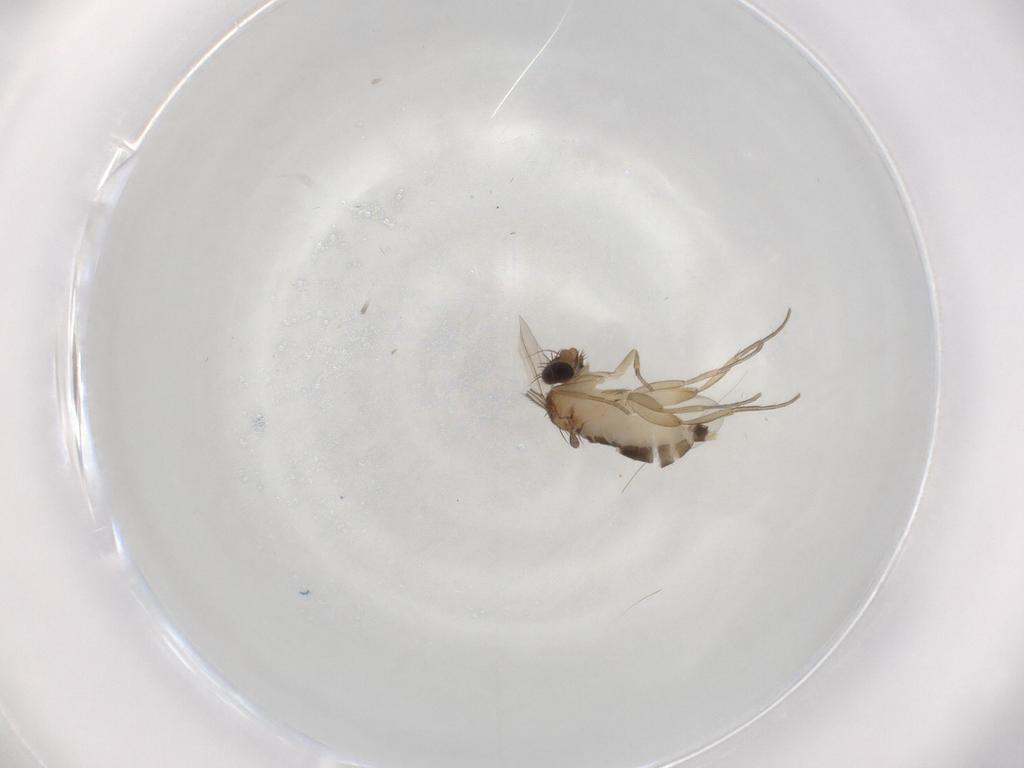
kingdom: Animalia
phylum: Arthropoda
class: Insecta
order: Diptera
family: Phoridae
